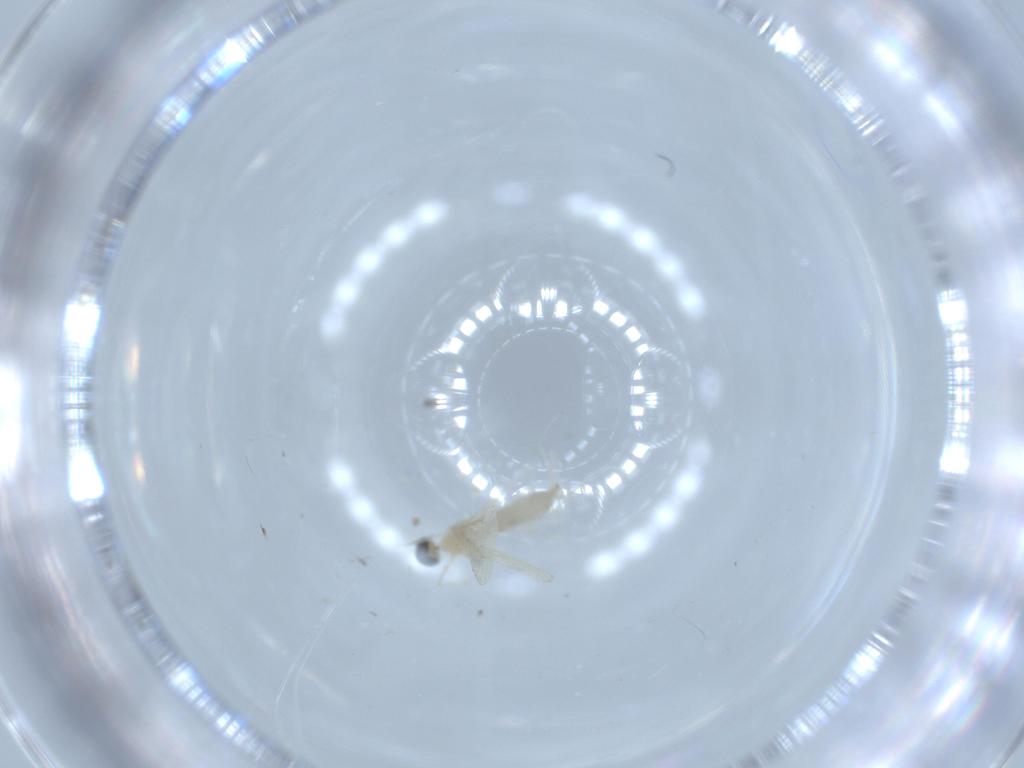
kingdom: Animalia
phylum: Arthropoda
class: Insecta
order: Diptera
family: Cecidomyiidae
